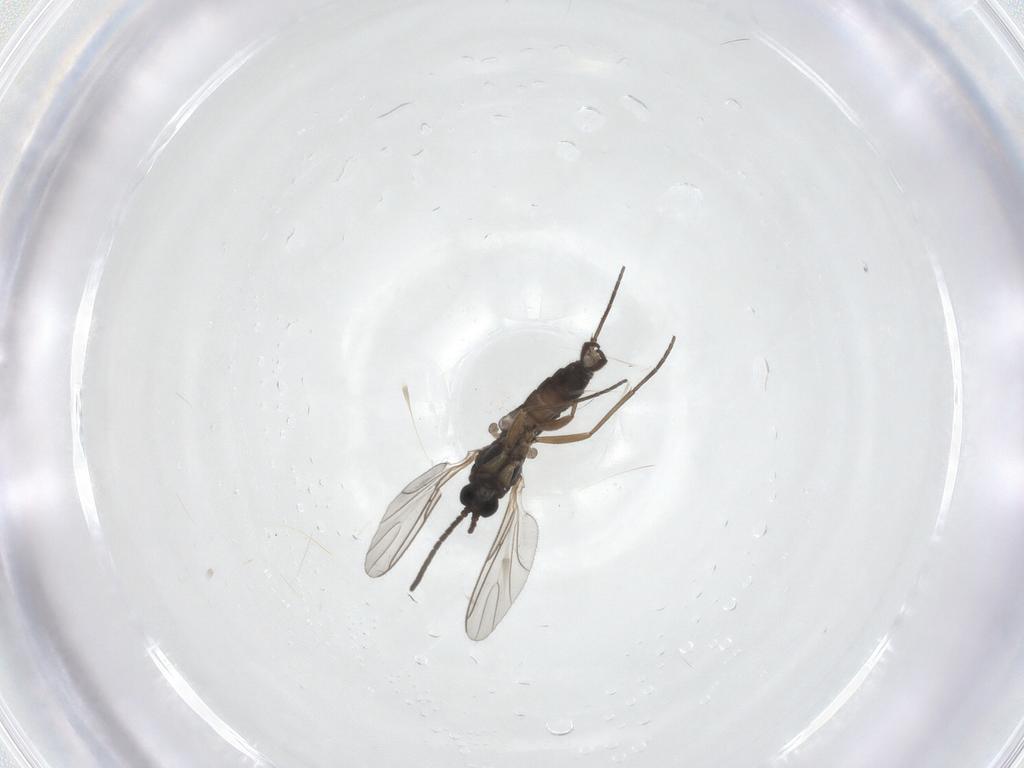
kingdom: Animalia
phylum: Arthropoda
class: Insecta
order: Diptera
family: Sciaridae
